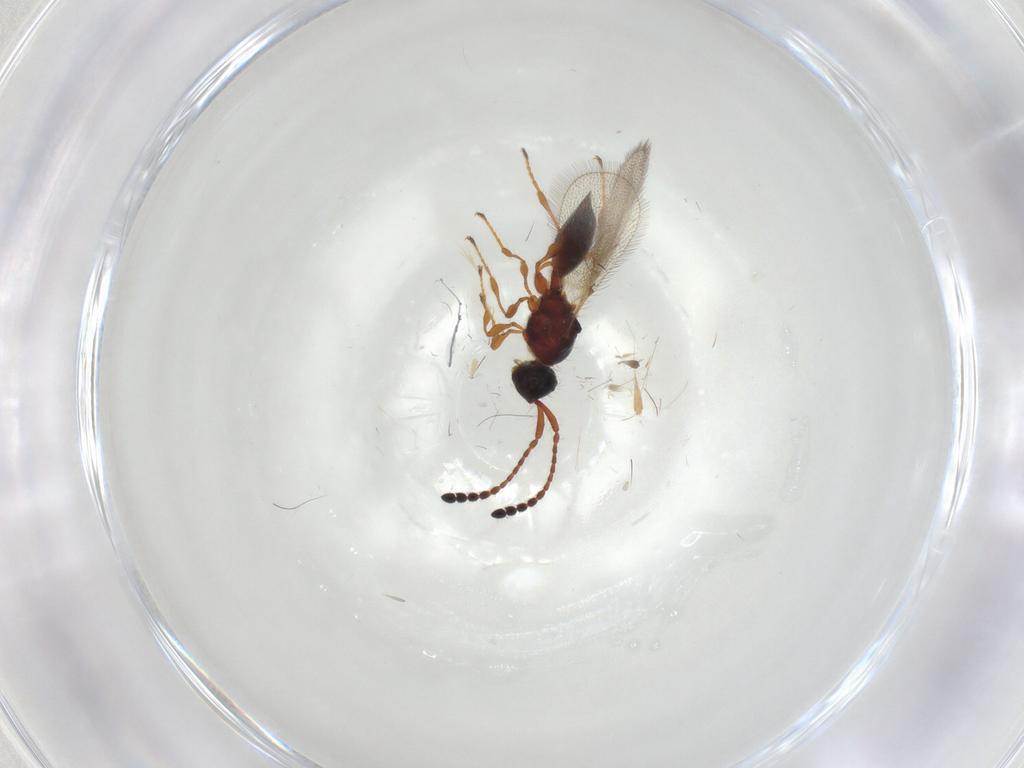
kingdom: Animalia
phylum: Arthropoda
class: Insecta
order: Hymenoptera
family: Diapriidae
